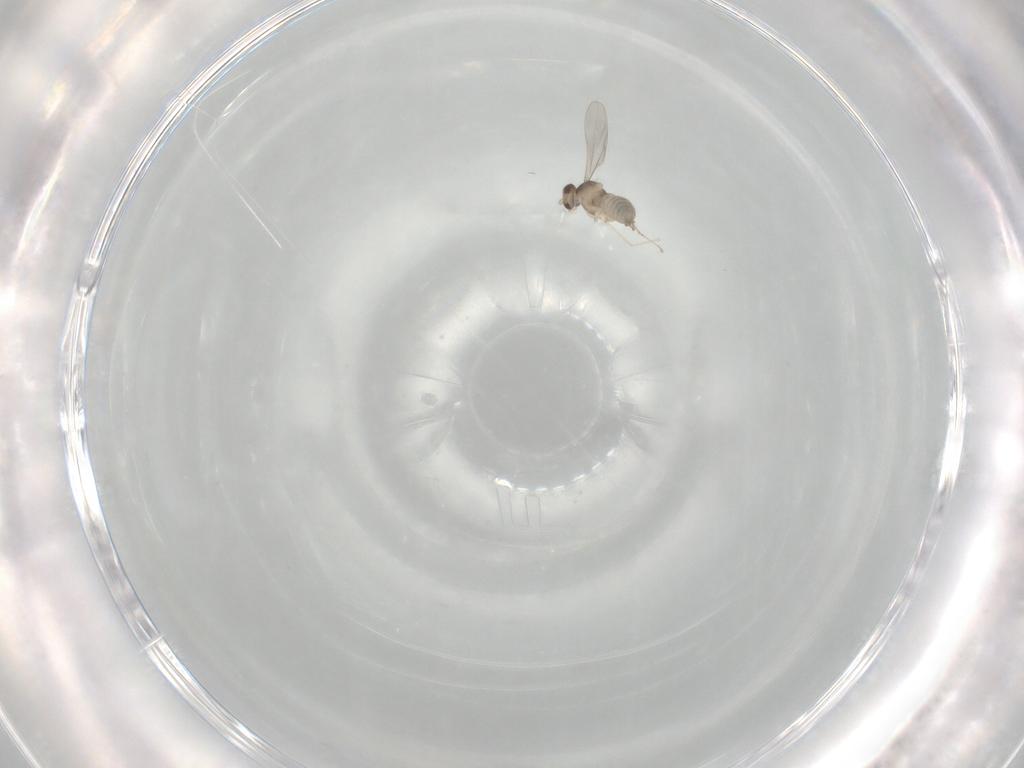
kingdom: Animalia
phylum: Arthropoda
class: Insecta
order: Diptera
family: Cecidomyiidae
